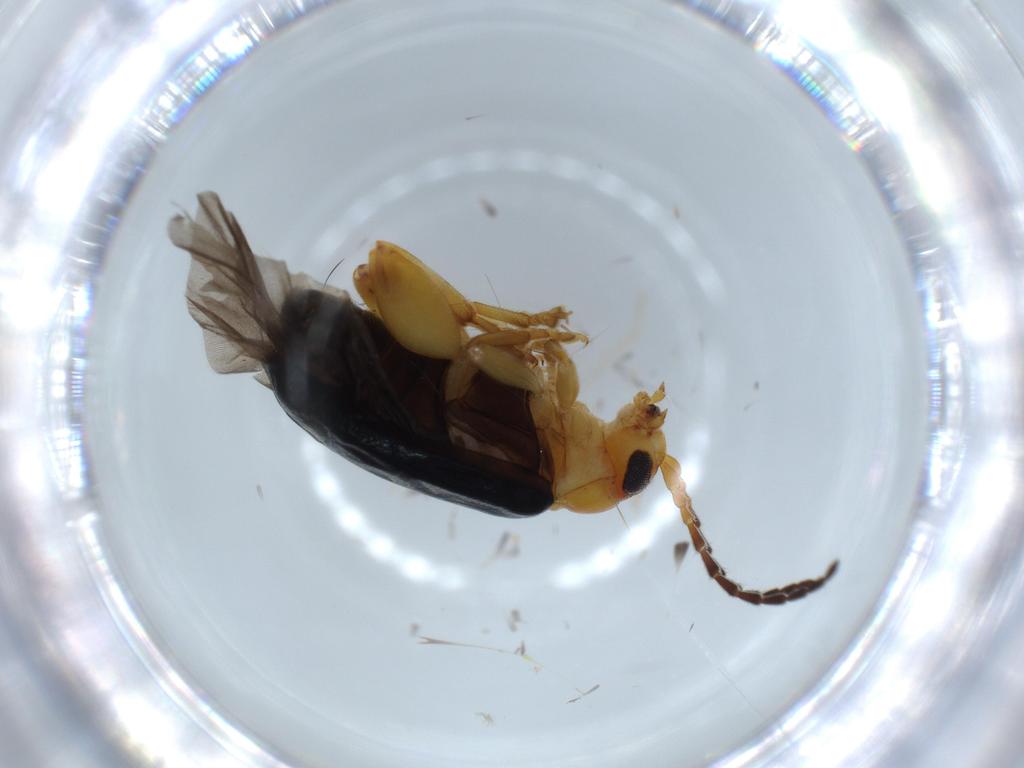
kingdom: Animalia
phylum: Arthropoda
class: Insecta
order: Coleoptera
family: Chrysomelidae
